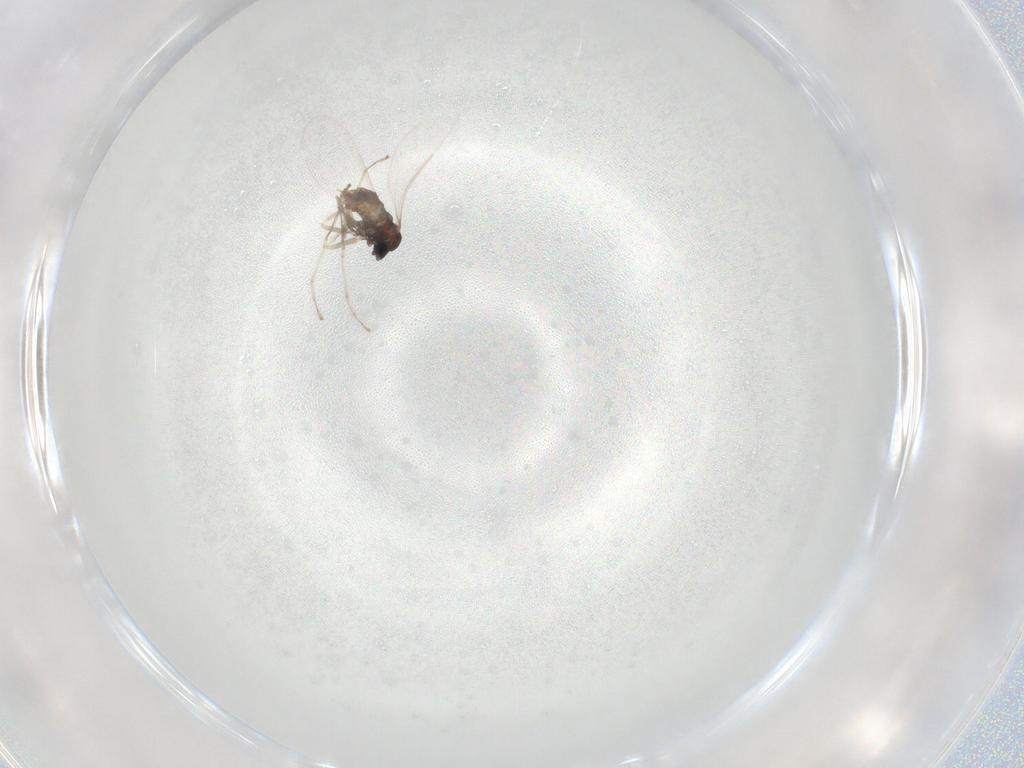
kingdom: Animalia
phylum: Arthropoda
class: Insecta
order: Diptera
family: Cecidomyiidae
